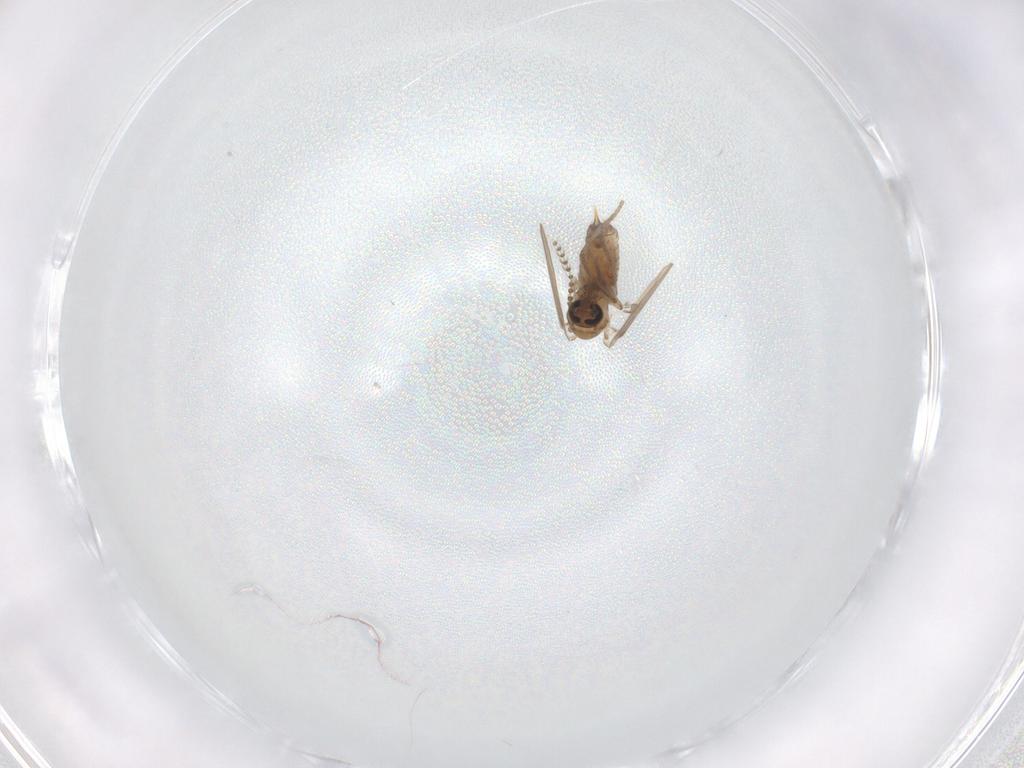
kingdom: Animalia
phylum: Arthropoda
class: Insecta
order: Diptera
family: Psychodidae
